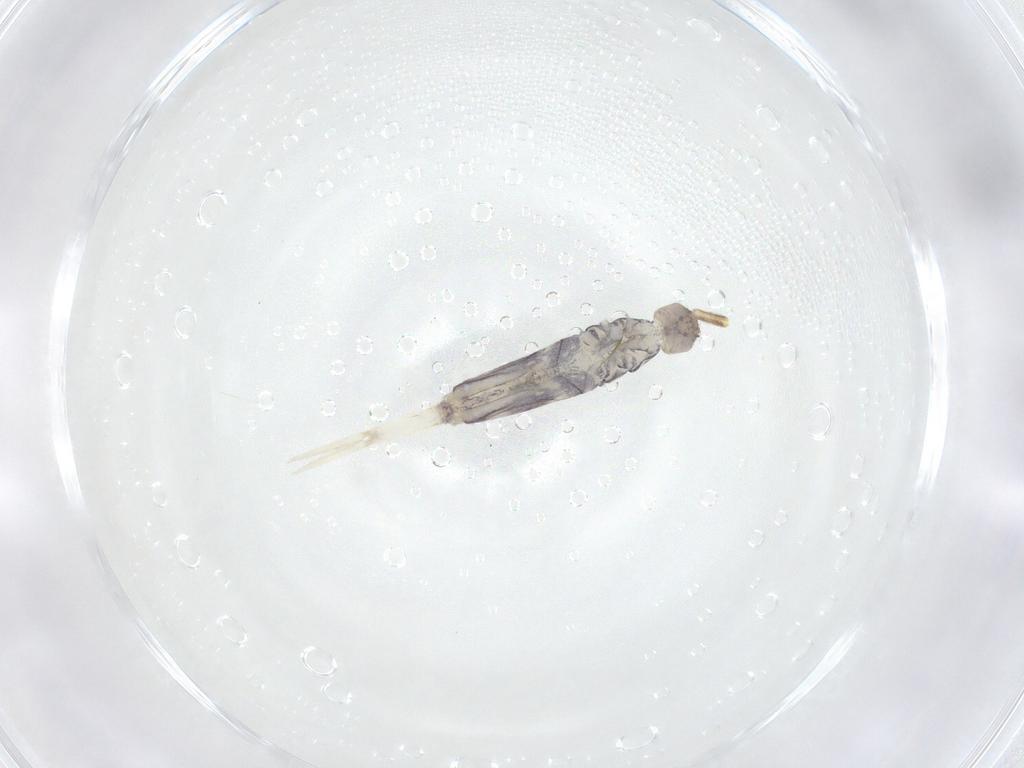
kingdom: Animalia
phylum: Arthropoda
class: Collembola
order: Entomobryomorpha
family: Entomobryidae
